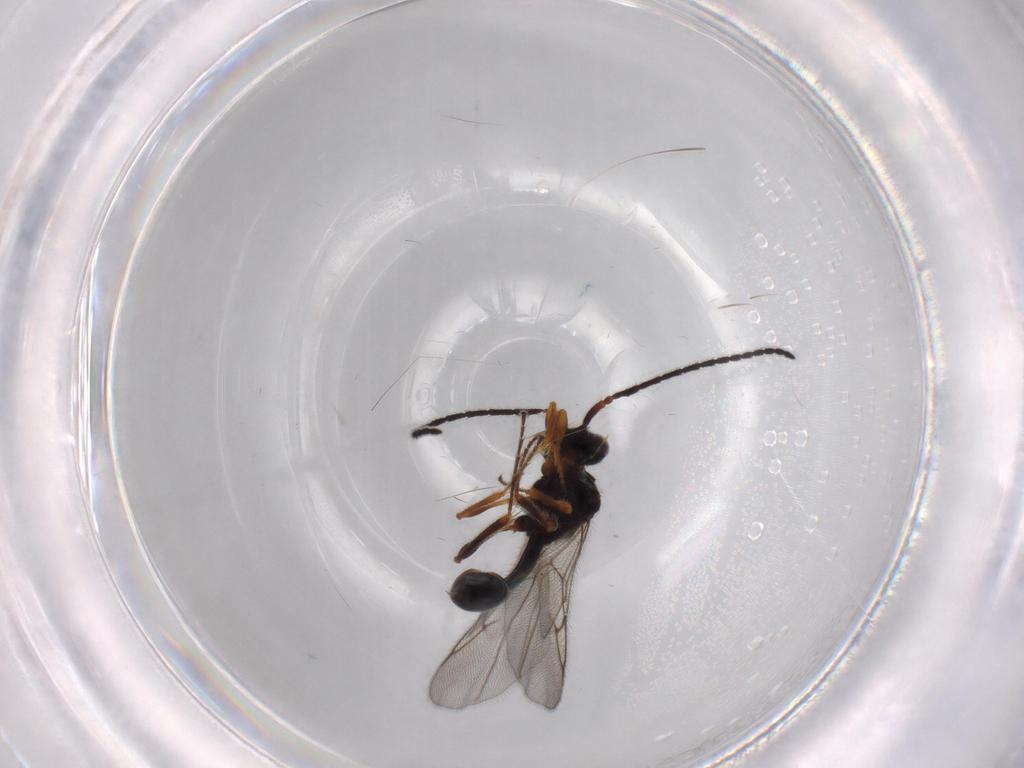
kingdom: Animalia
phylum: Arthropoda
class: Insecta
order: Hymenoptera
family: Diapriidae
